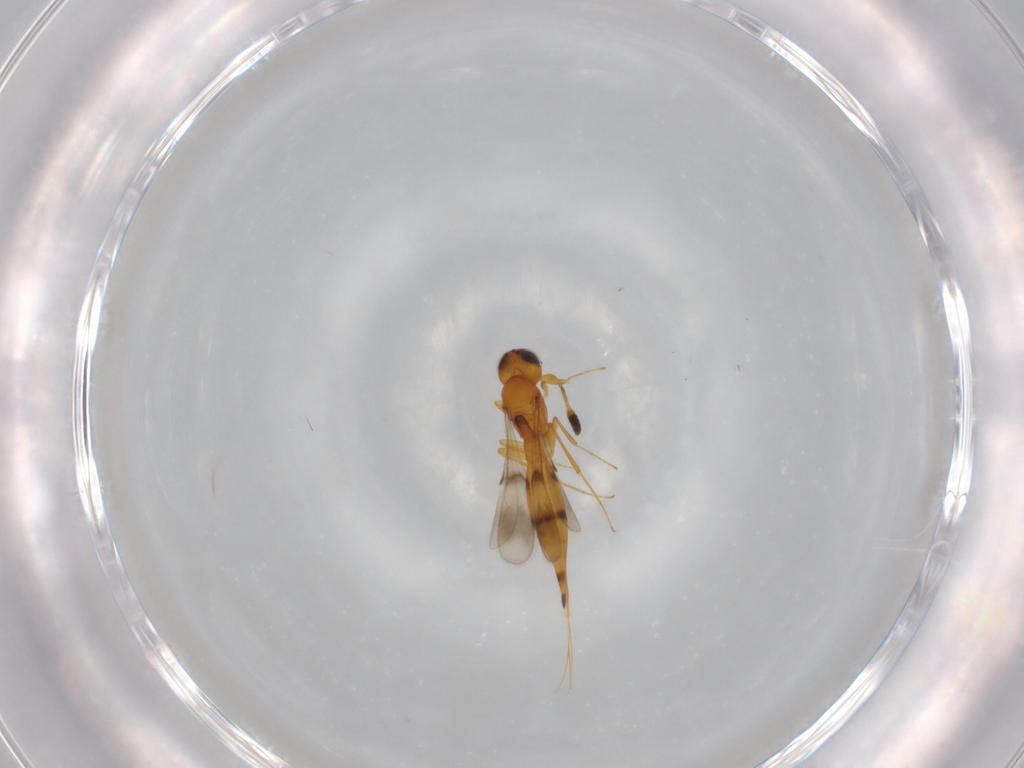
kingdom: Animalia
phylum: Arthropoda
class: Insecta
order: Hymenoptera
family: Scelionidae
